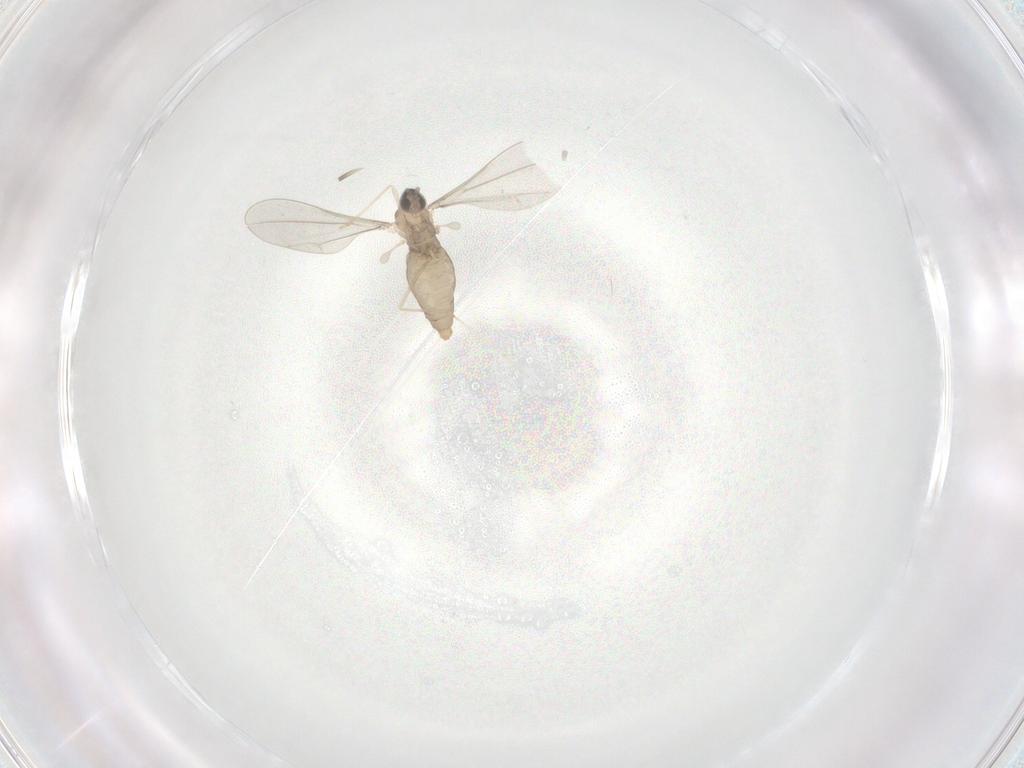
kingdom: Animalia
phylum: Arthropoda
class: Insecta
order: Diptera
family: Cecidomyiidae
